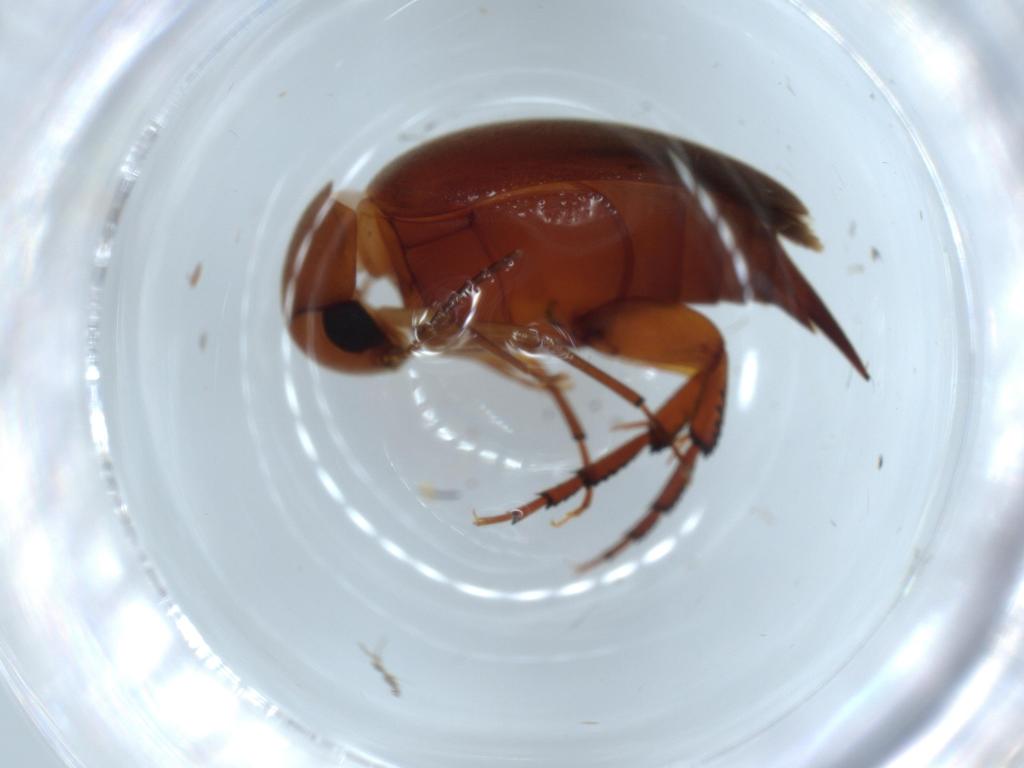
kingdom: Animalia
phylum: Arthropoda
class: Insecta
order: Coleoptera
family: Mordellidae
